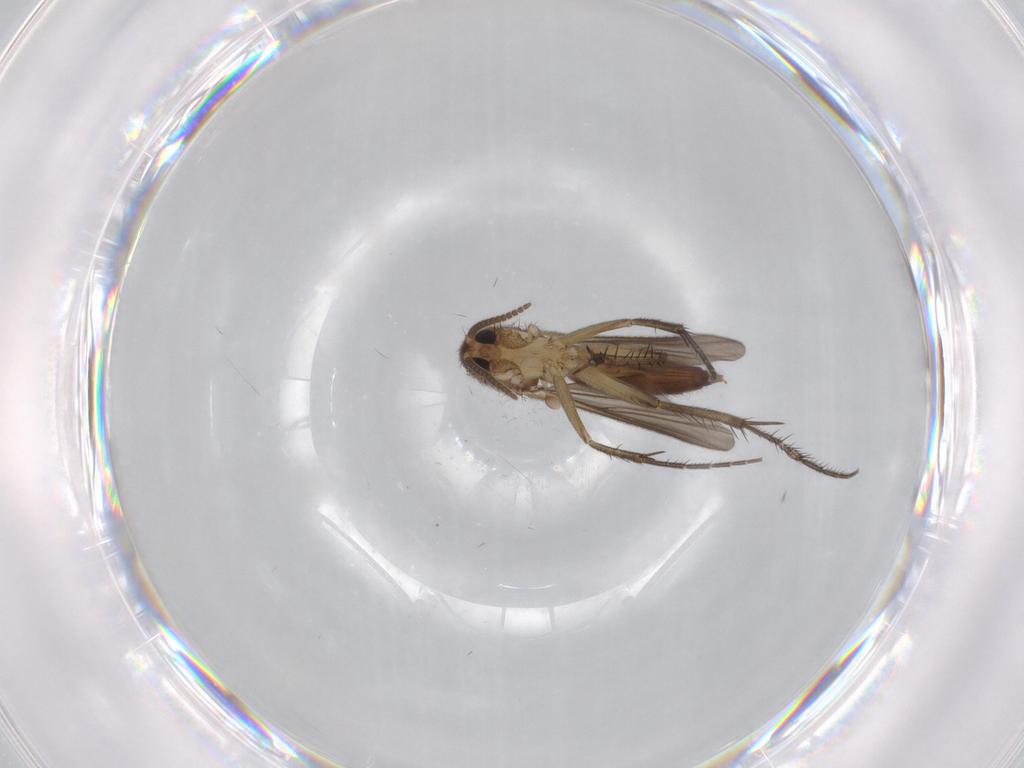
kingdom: Animalia
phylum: Arthropoda
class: Insecta
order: Diptera
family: Mycetophilidae
